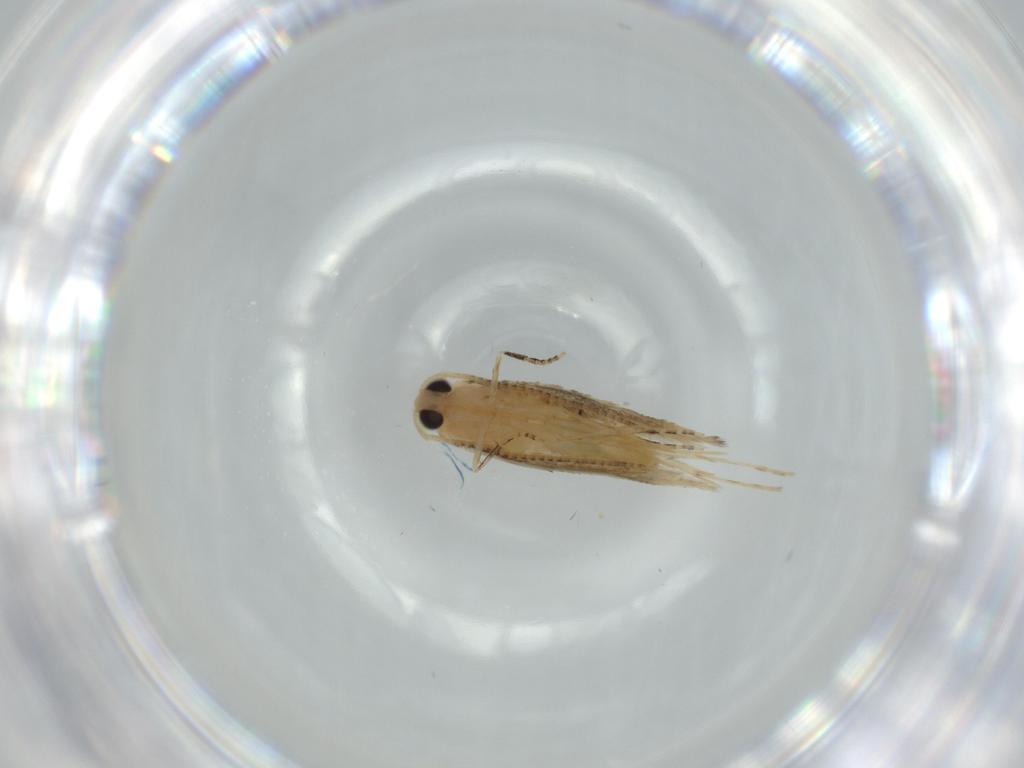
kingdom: Animalia
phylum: Arthropoda
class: Insecta
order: Lepidoptera
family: Bucculatricidae
